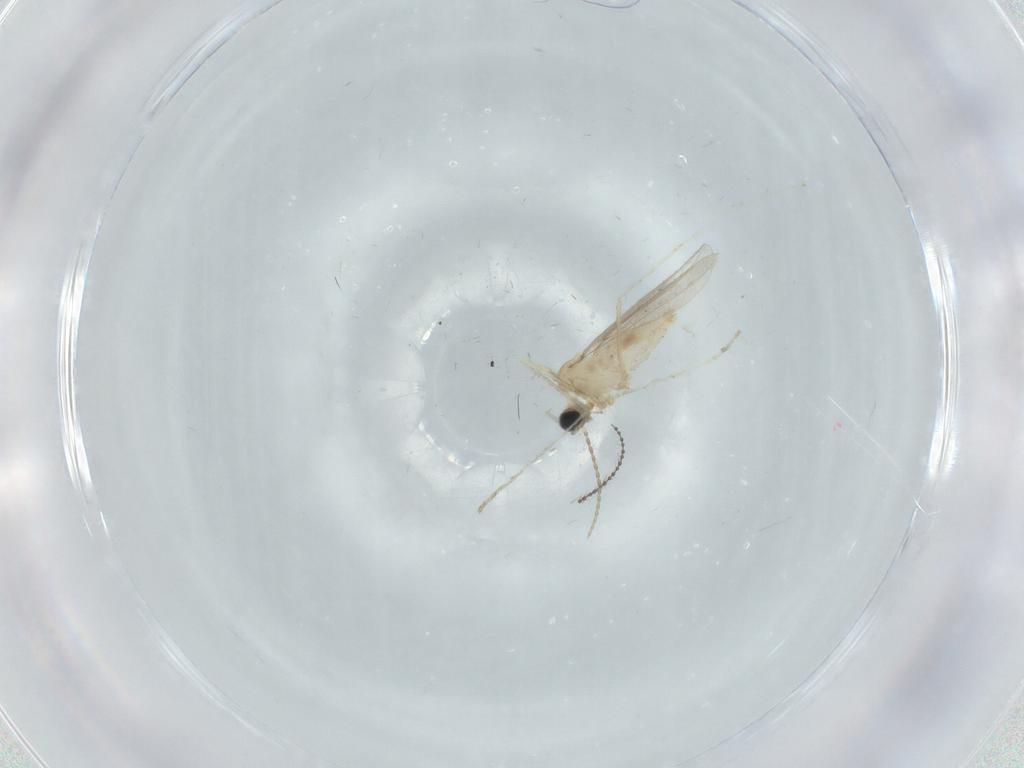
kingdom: Animalia
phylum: Arthropoda
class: Insecta
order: Diptera
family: Cecidomyiidae
